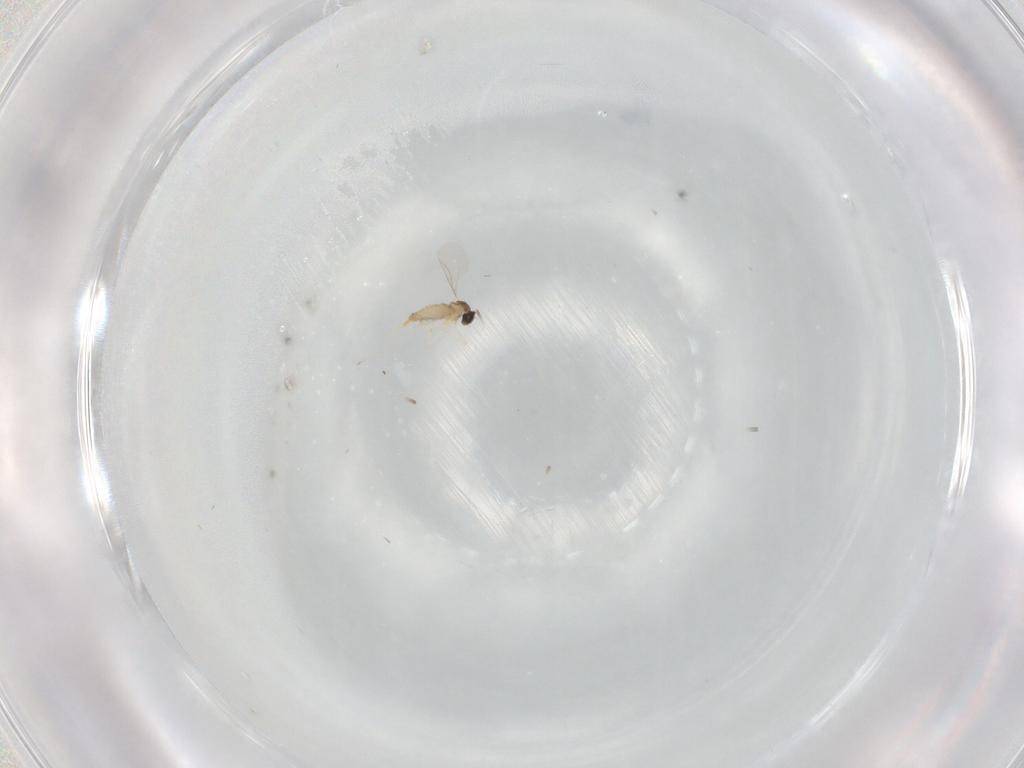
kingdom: Animalia
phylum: Arthropoda
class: Insecta
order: Diptera
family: Cecidomyiidae
